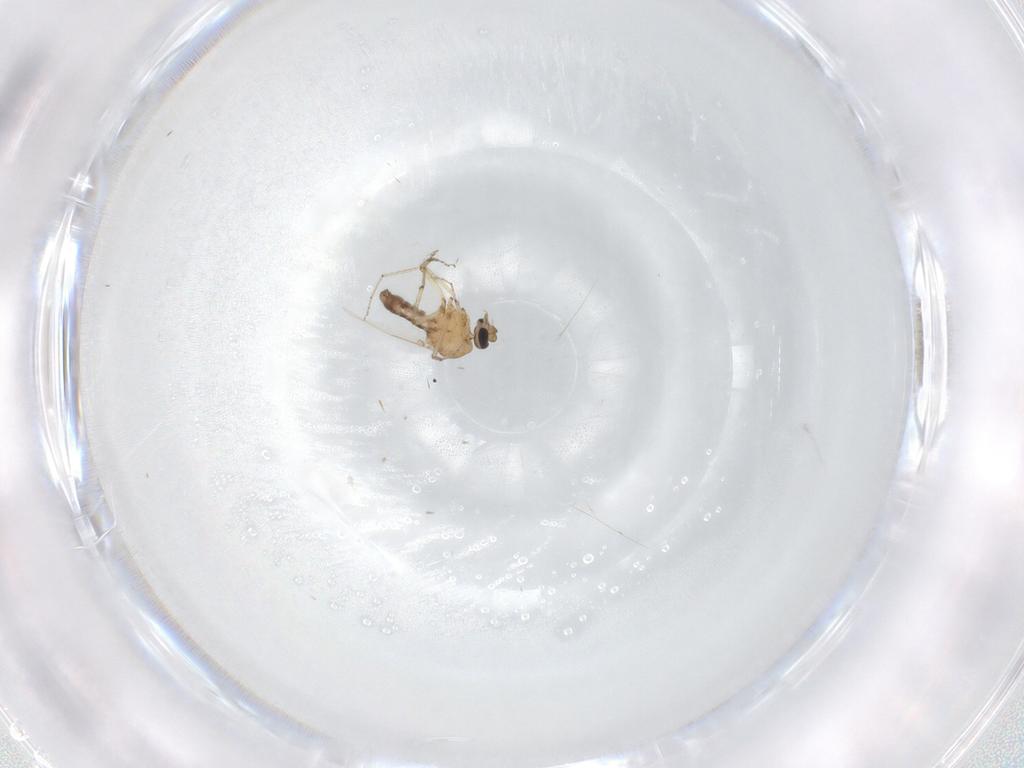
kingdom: Animalia
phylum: Arthropoda
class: Insecta
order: Diptera
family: Ceratopogonidae
